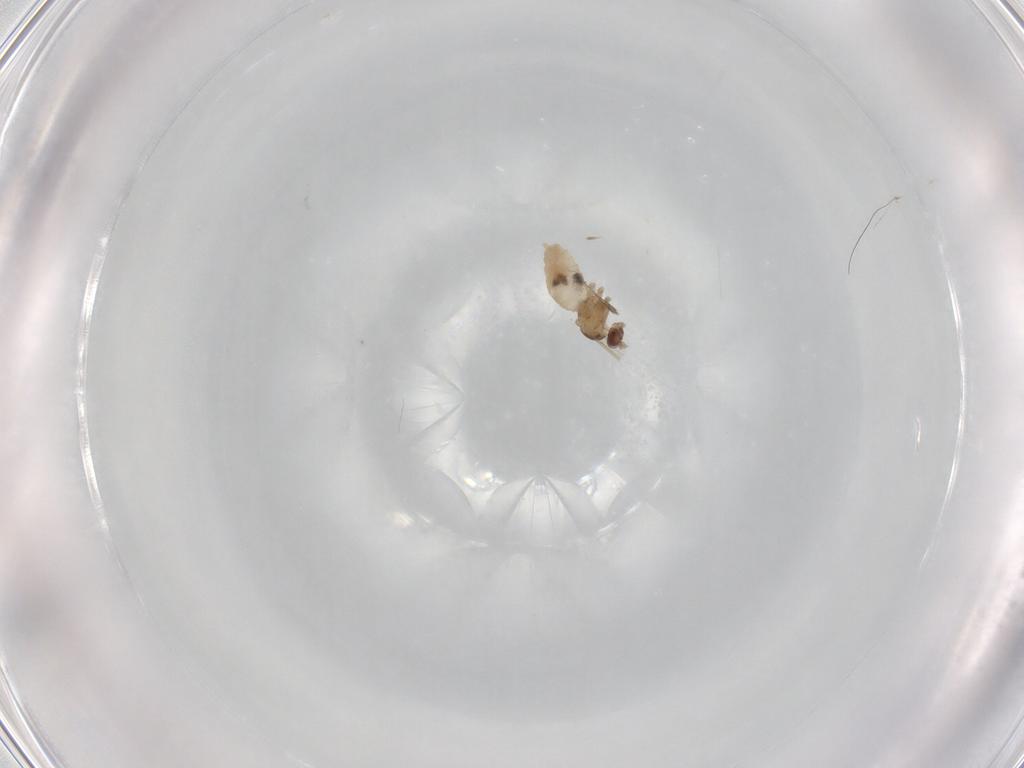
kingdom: Animalia
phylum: Arthropoda
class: Insecta
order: Diptera
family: Cecidomyiidae
